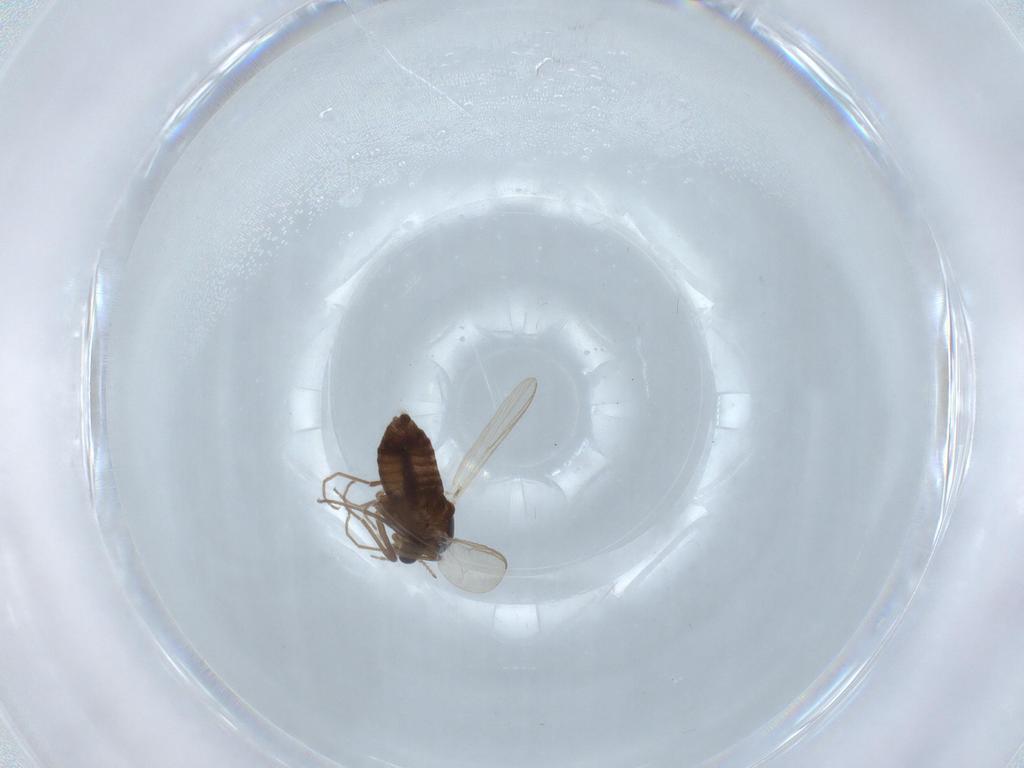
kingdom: Animalia
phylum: Arthropoda
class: Insecta
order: Diptera
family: Chironomidae
